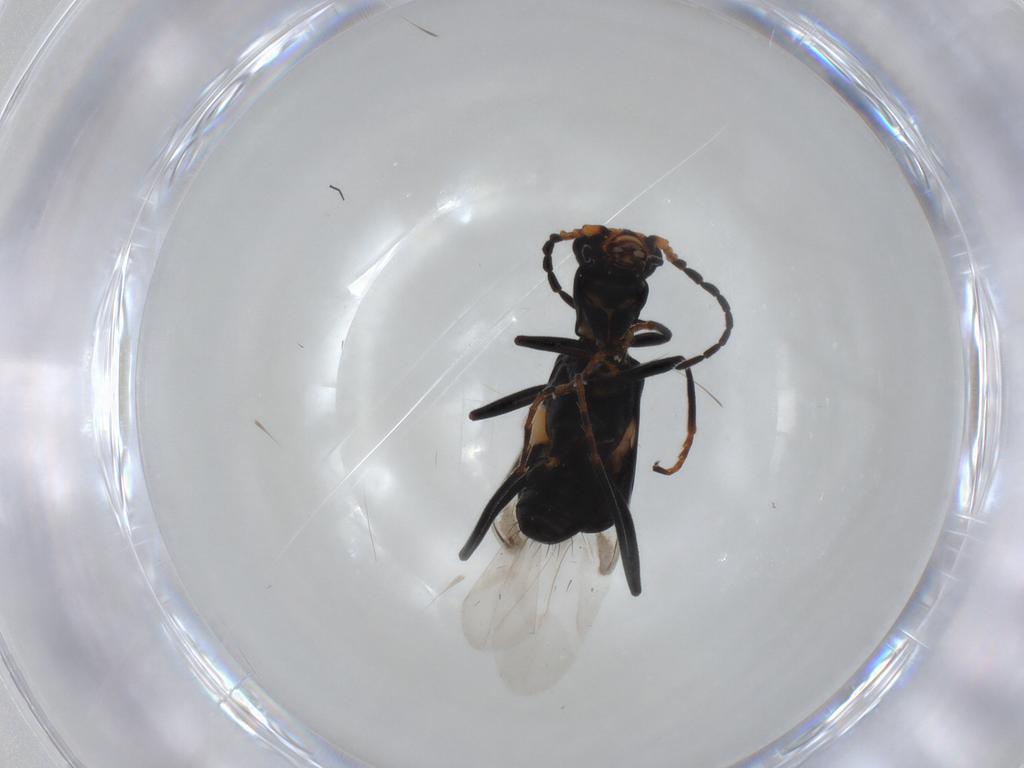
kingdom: Animalia
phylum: Arthropoda
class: Insecta
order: Coleoptera
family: Melyridae
